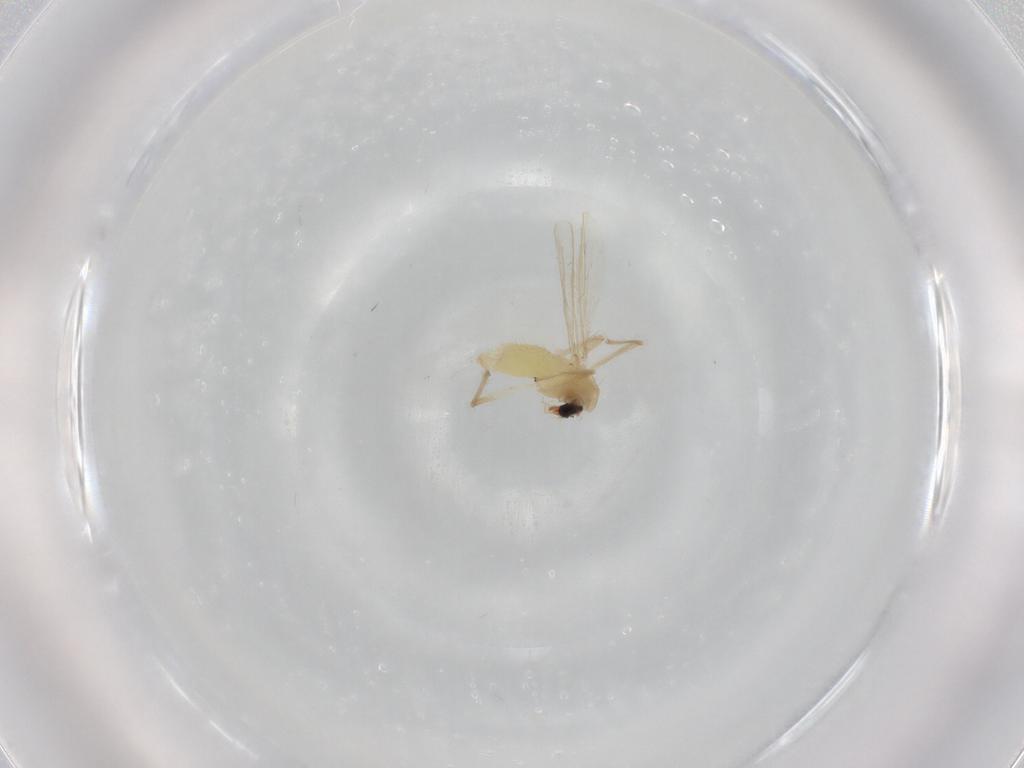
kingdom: Animalia
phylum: Arthropoda
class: Insecta
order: Diptera
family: Chironomidae
